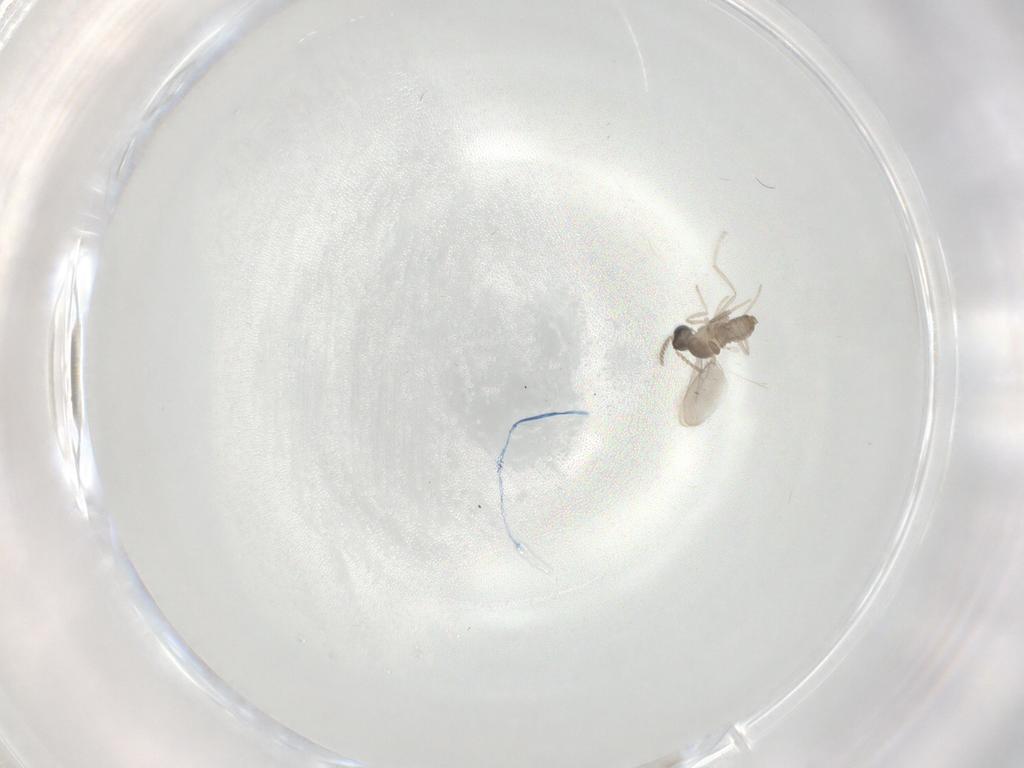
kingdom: Animalia
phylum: Arthropoda
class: Insecta
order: Diptera
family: Cecidomyiidae
